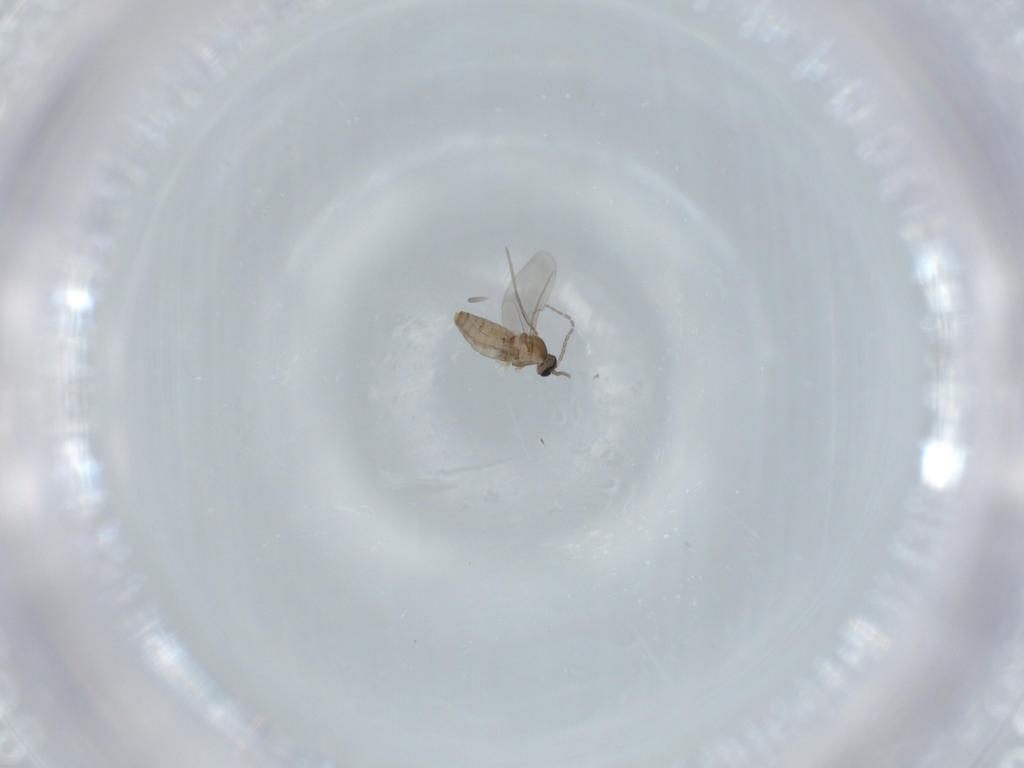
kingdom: Animalia
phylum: Arthropoda
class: Insecta
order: Diptera
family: Cecidomyiidae
